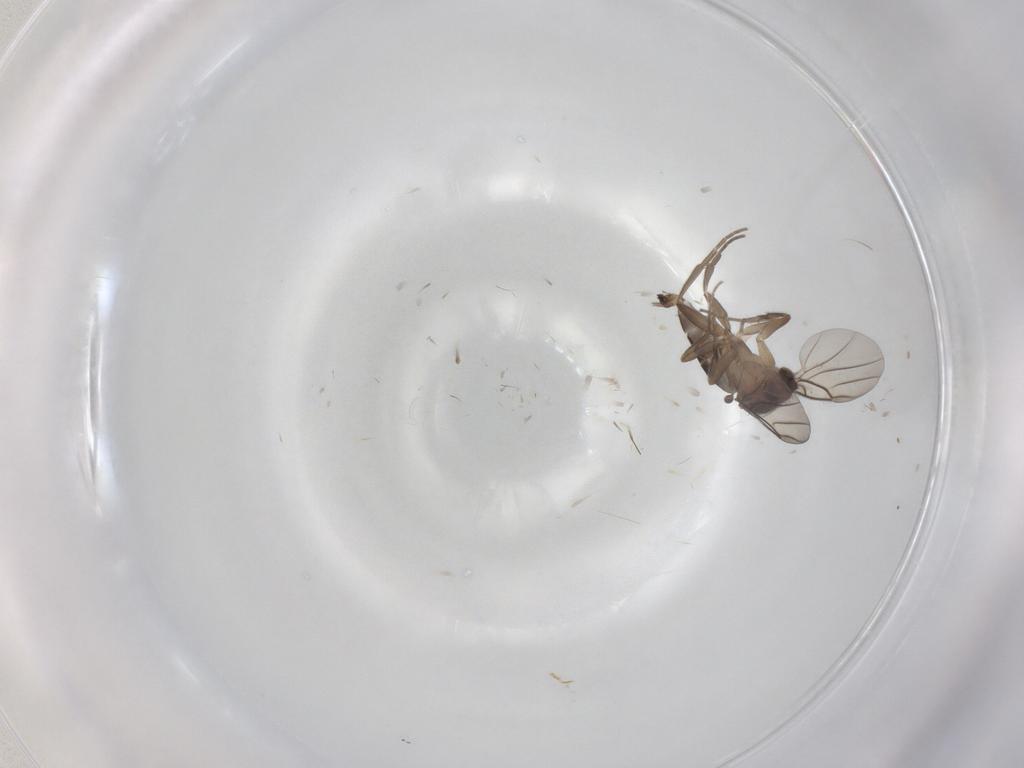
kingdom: Animalia
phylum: Arthropoda
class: Insecta
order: Diptera
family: Phoridae
